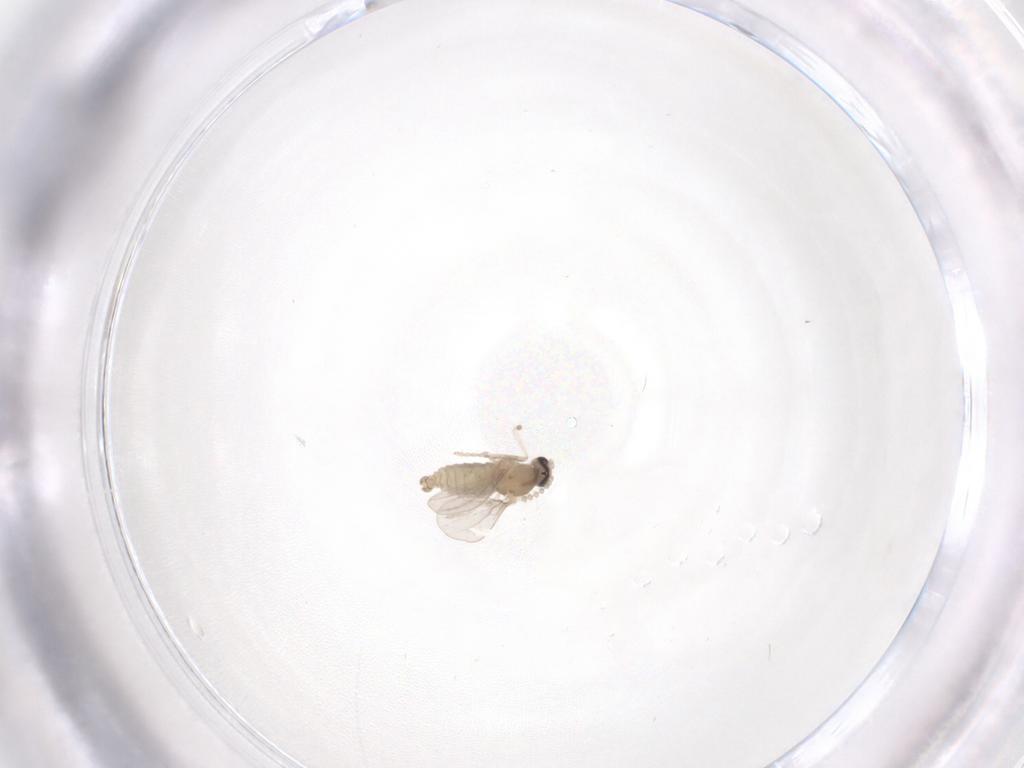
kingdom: Animalia
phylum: Arthropoda
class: Insecta
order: Diptera
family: Cecidomyiidae
